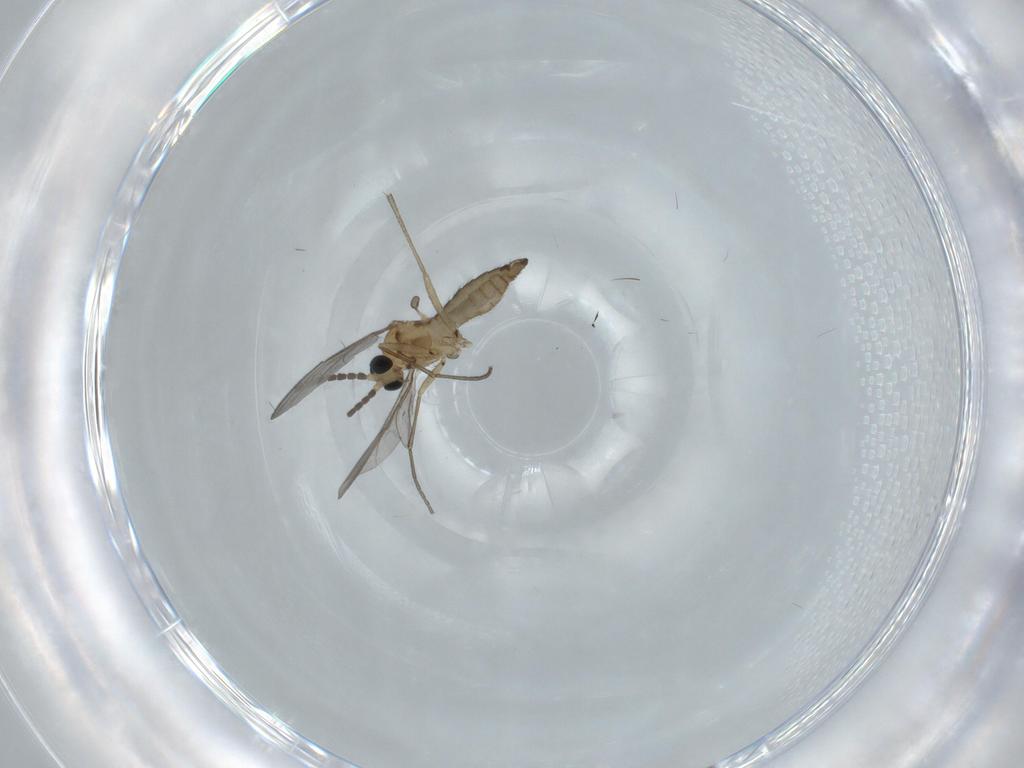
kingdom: Animalia
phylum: Arthropoda
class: Insecta
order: Diptera
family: Sciaridae
